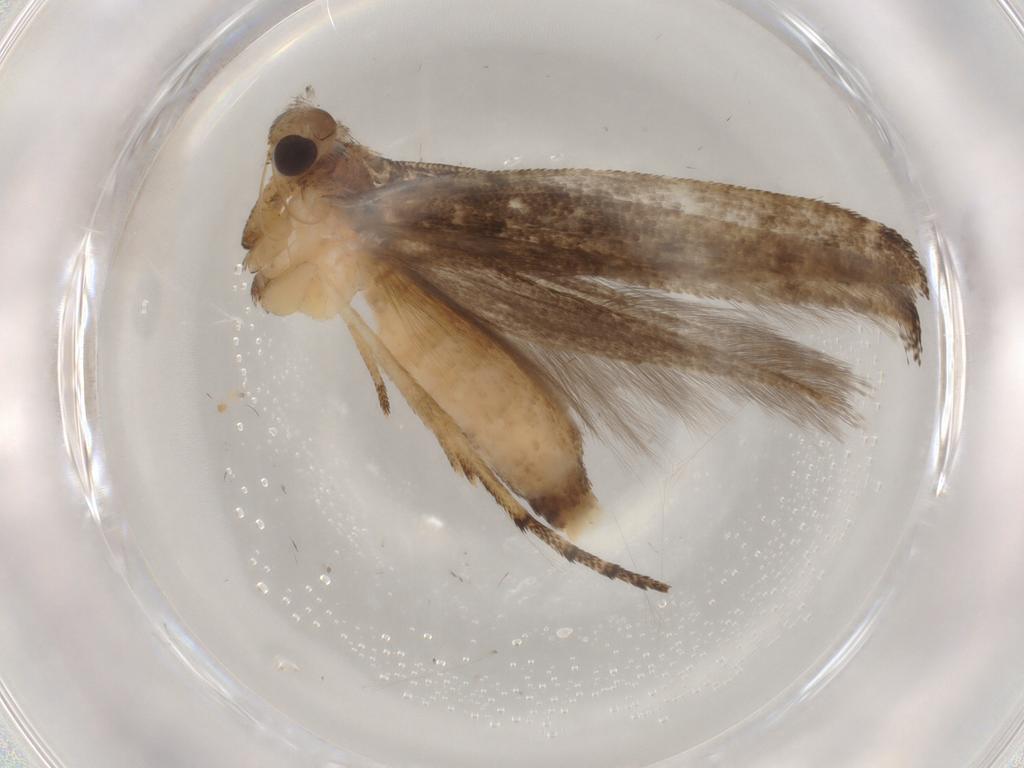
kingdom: Animalia
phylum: Arthropoda
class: Insecta
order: Lepidoptera
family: Yponomeutidae
